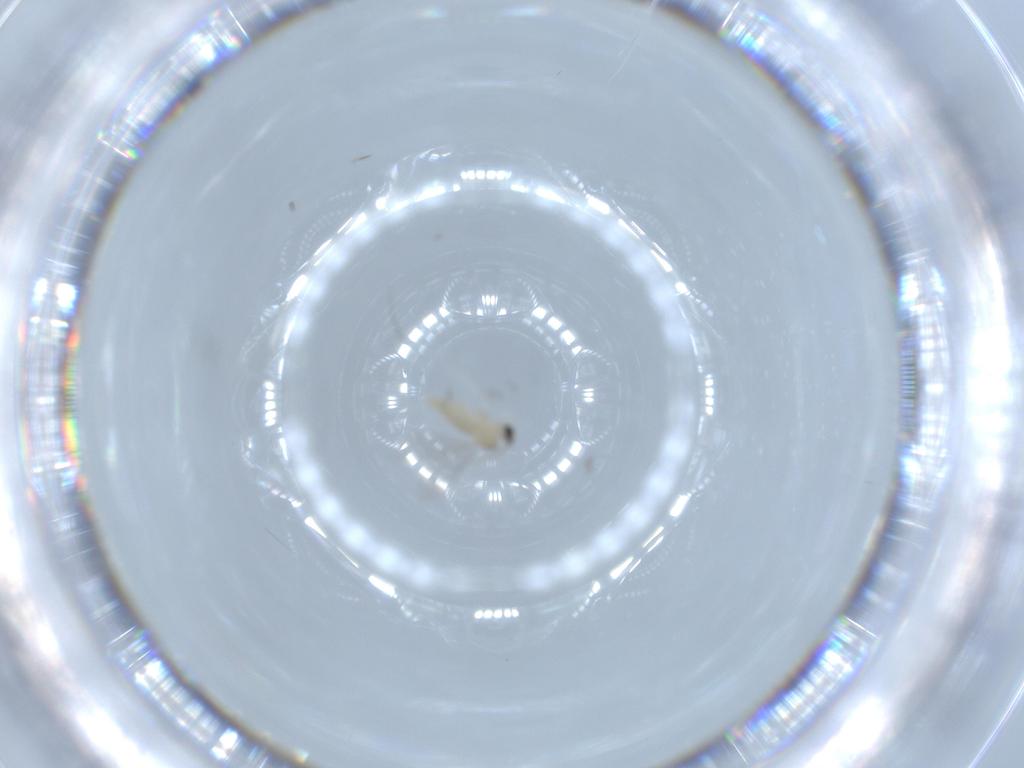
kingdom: Animalia
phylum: Arthropoda
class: Insecta
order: Diptera
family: Cecidomyiidae
